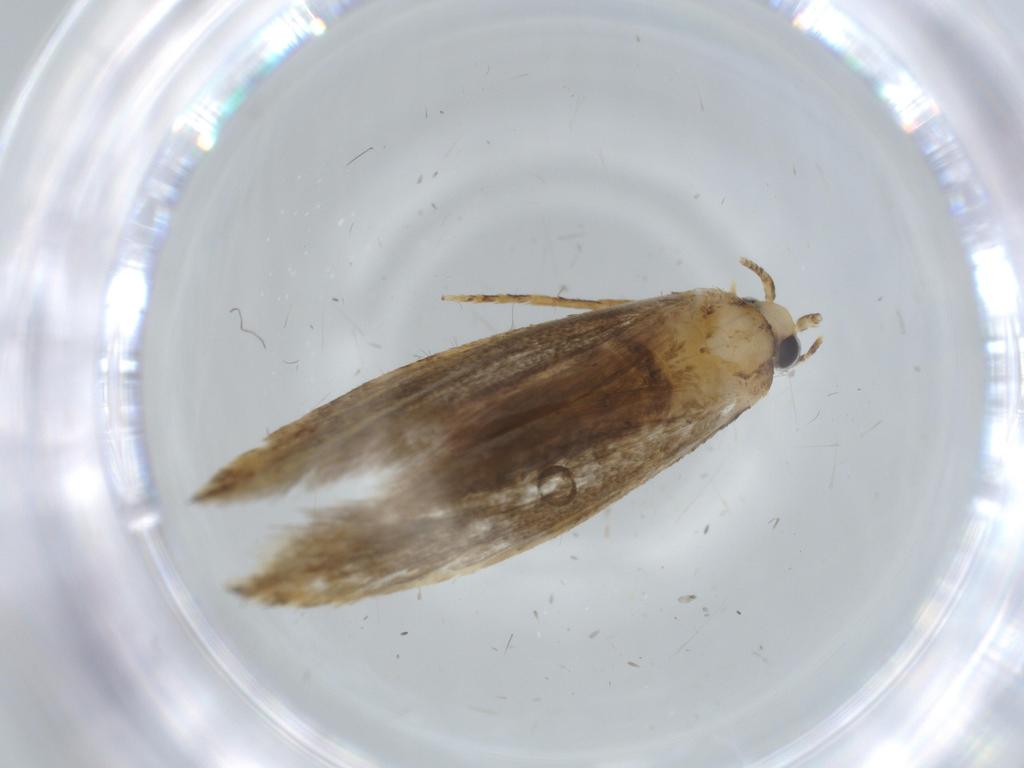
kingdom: Animalia
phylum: Arthropoda
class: Insecta
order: Lepidoptera
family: Tineidae
